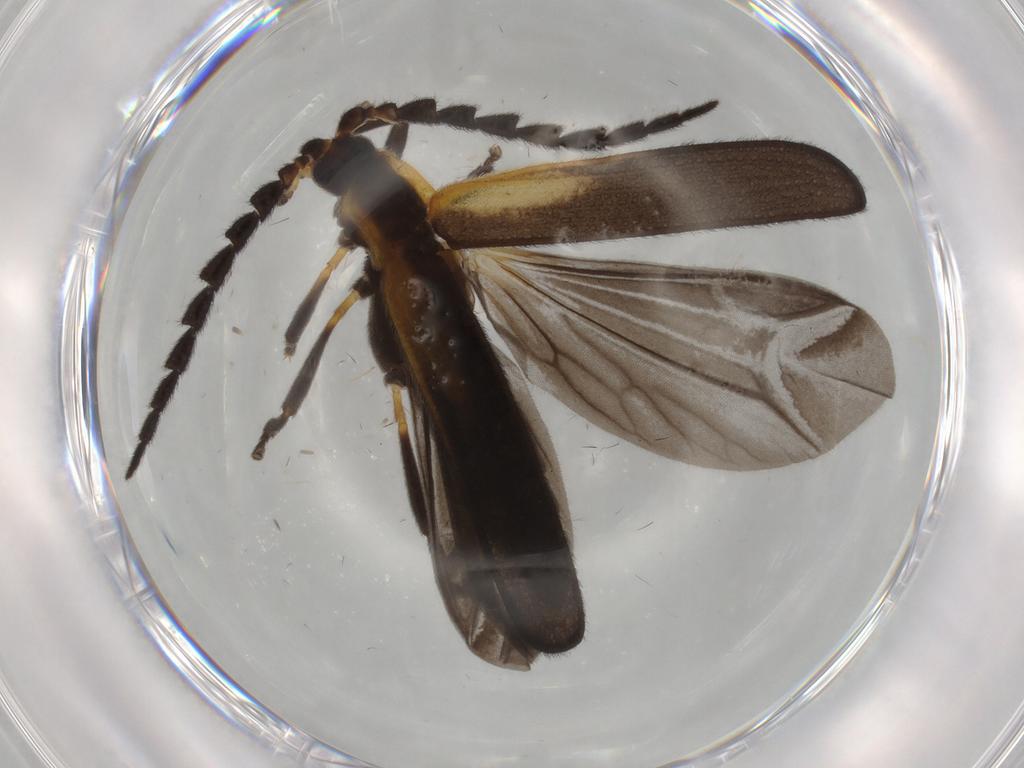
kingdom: Animalia
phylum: Arthropoda
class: Insecta
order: Coleoptera
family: Lycidae
